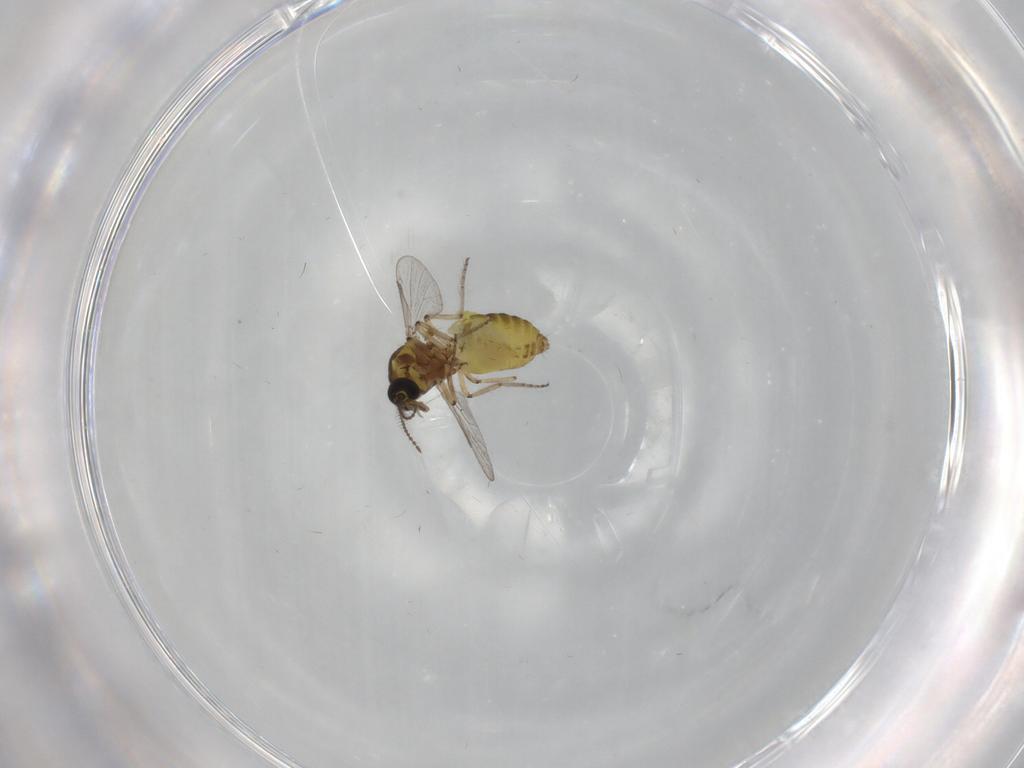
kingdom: Animalia
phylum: Arthropoda
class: Insecta
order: Diptera
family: Ceratopogonidae
